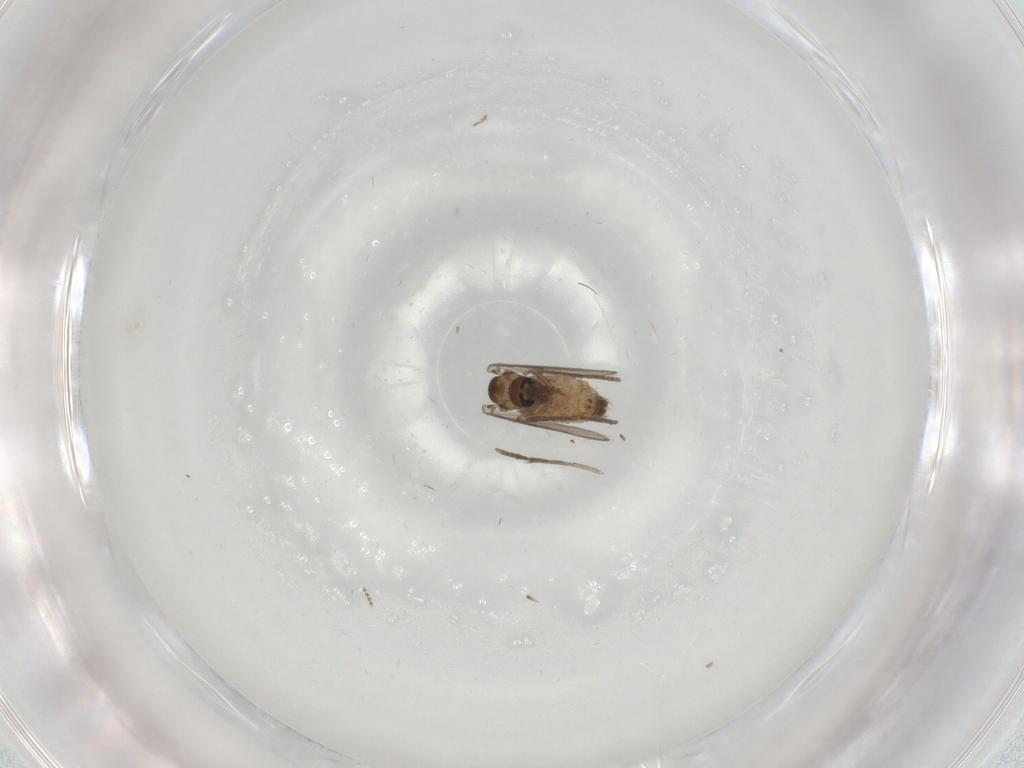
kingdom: Animalia
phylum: Arthropoda
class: Insecta
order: Diptera
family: Psychodidae
